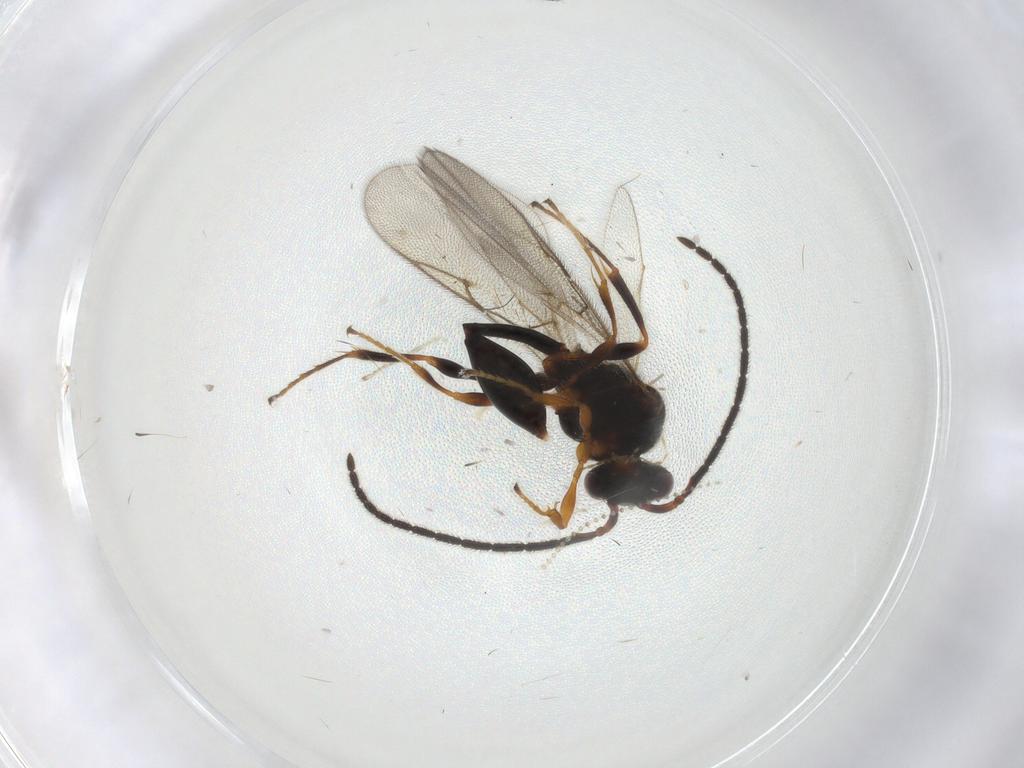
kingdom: Animalia
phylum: Arthropoda
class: Insecta
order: Hymenoptera
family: Diapriidae
